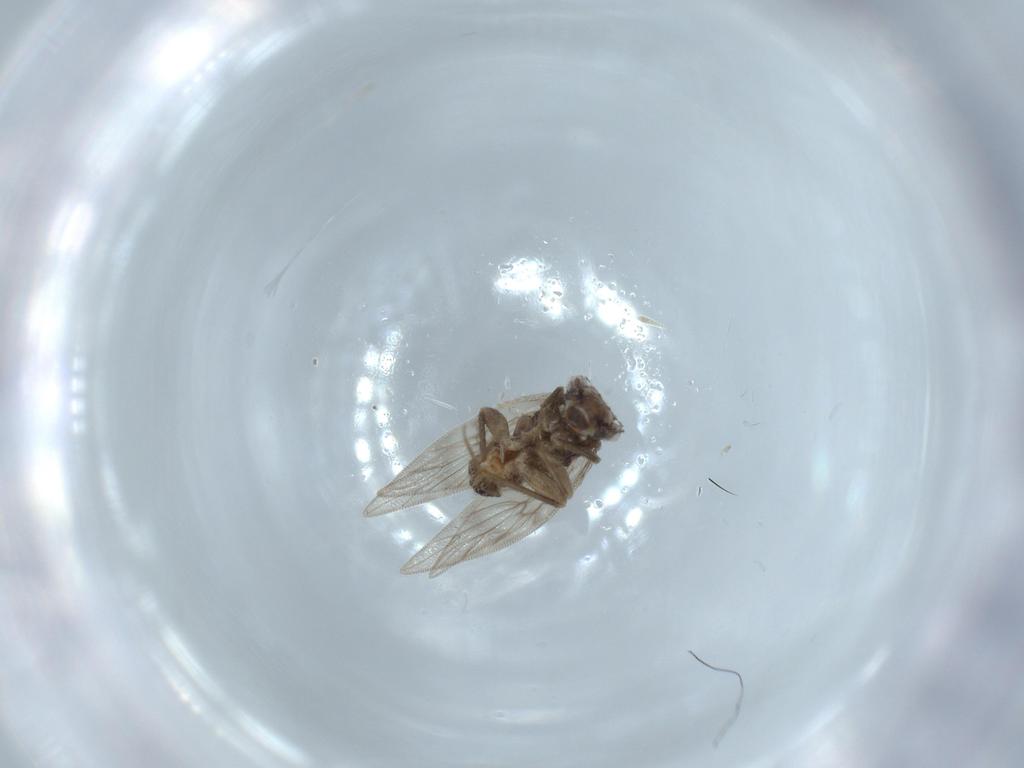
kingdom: Animalia
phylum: Arthropoda
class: Insecta
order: Psocodea
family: Lepidopsocidae
